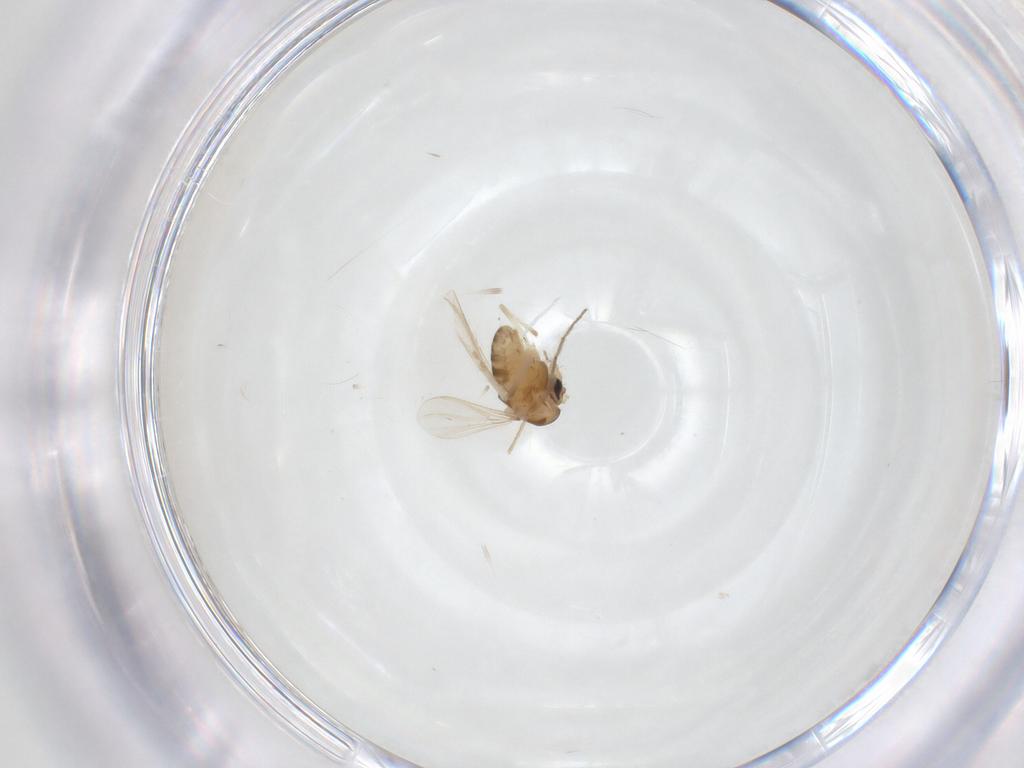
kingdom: Animalia
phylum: Arthropoda
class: Insecta
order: Diptera
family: Chironomidae
